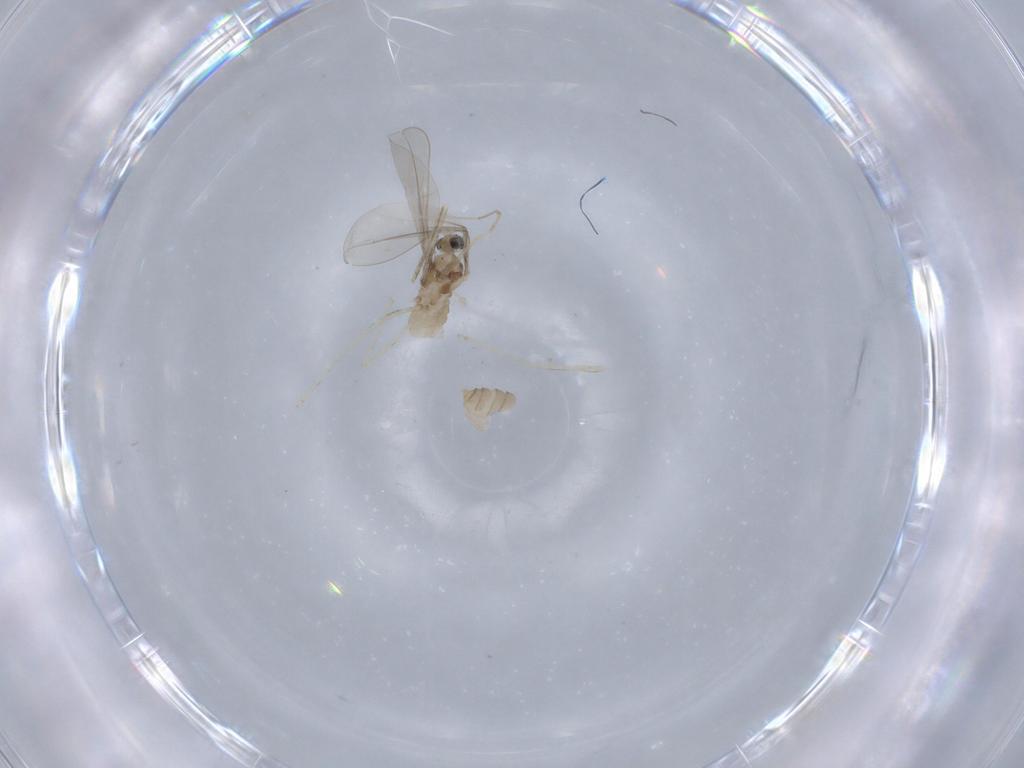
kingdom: Animalia
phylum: Arthropoda
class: Insecta
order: Diptera
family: Cecidomyiidae
